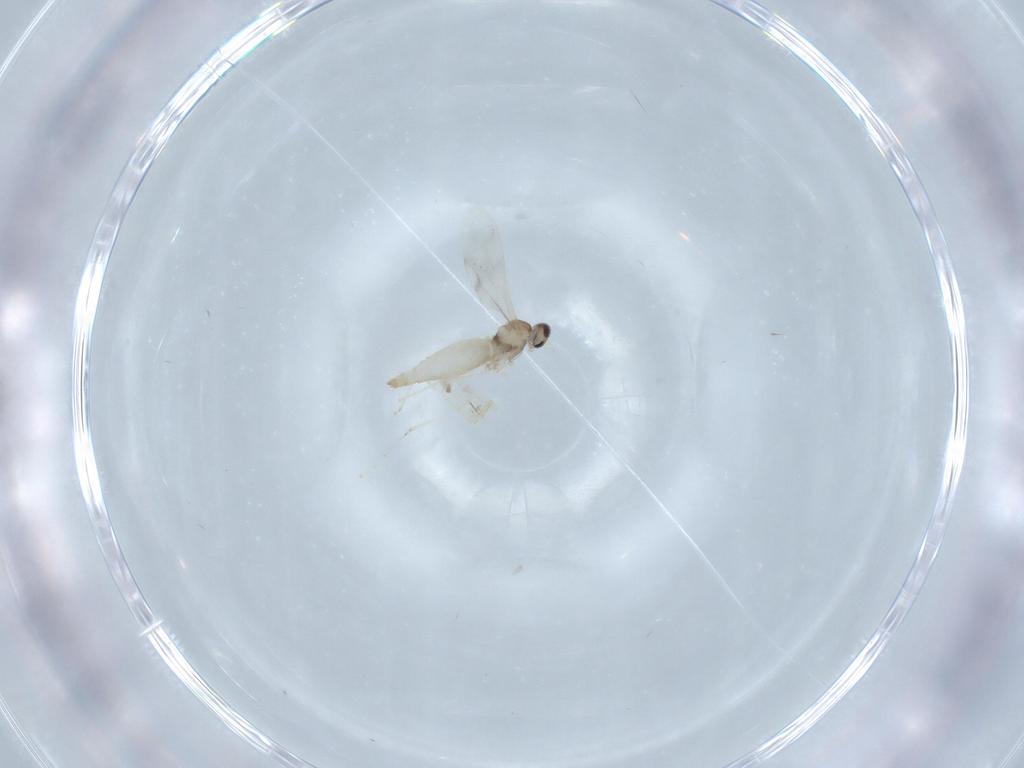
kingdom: Animalia
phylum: Arthropoda
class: Insecta
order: Diptera
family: Cecidomyiidae
